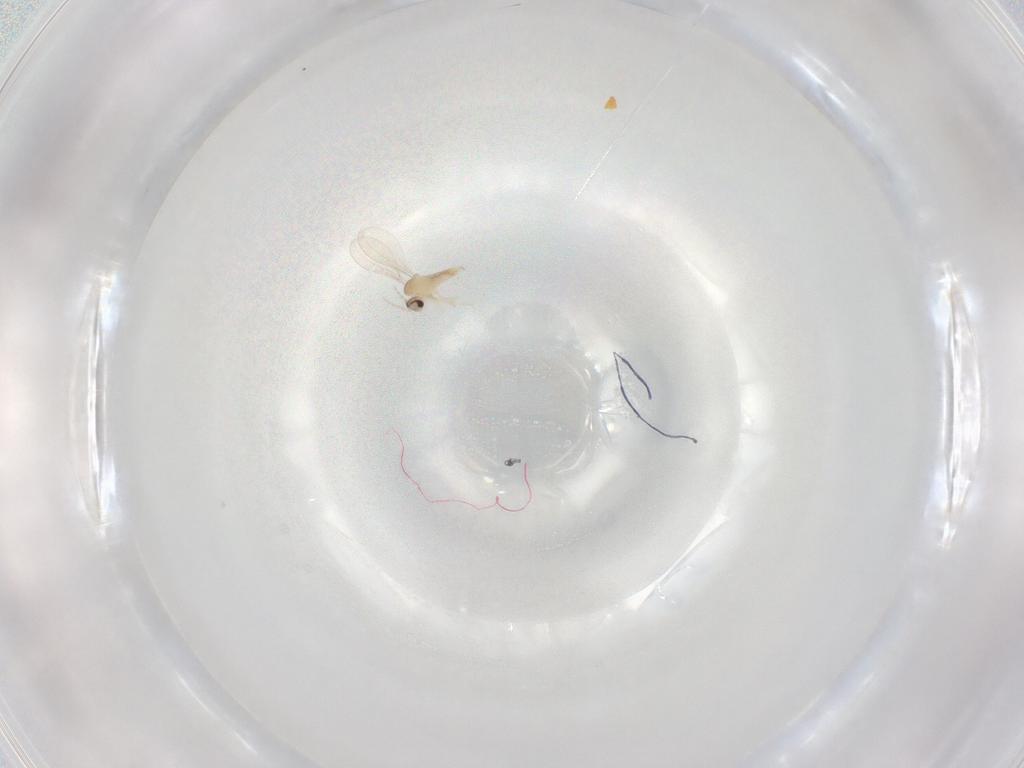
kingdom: Animalia
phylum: Arthropoda
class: Insecta
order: Diptera
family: Cecidomyiidae
